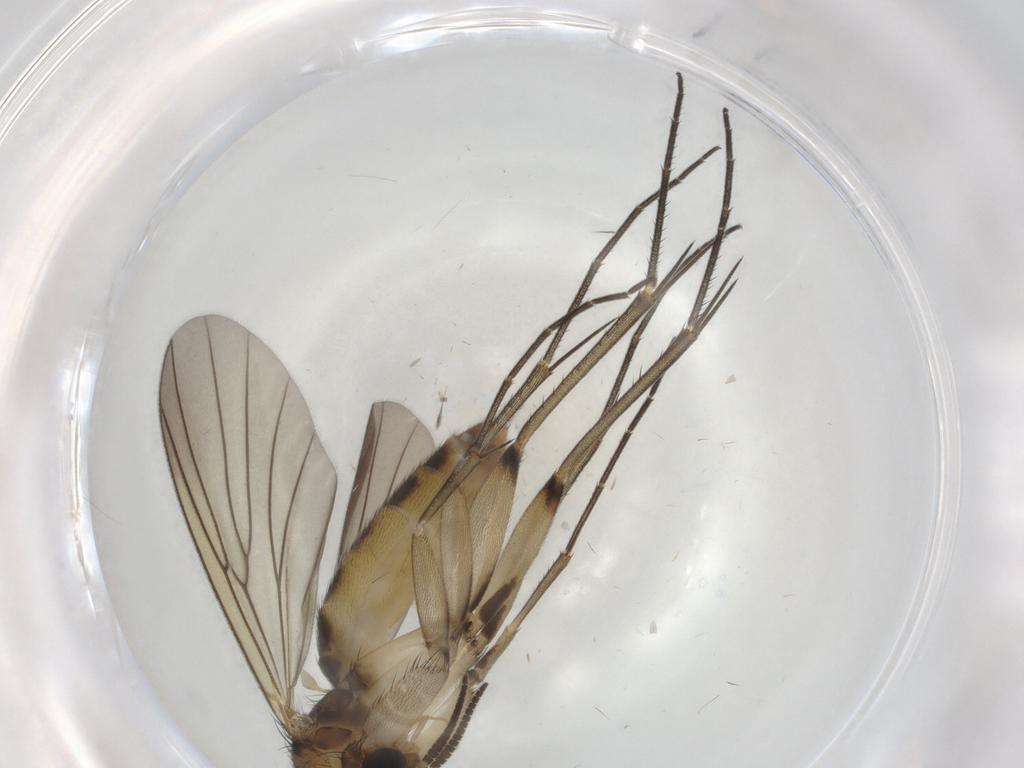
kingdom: Animalia
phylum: Arthropoda
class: Insecta
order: Diptera
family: Mycetophilidae
